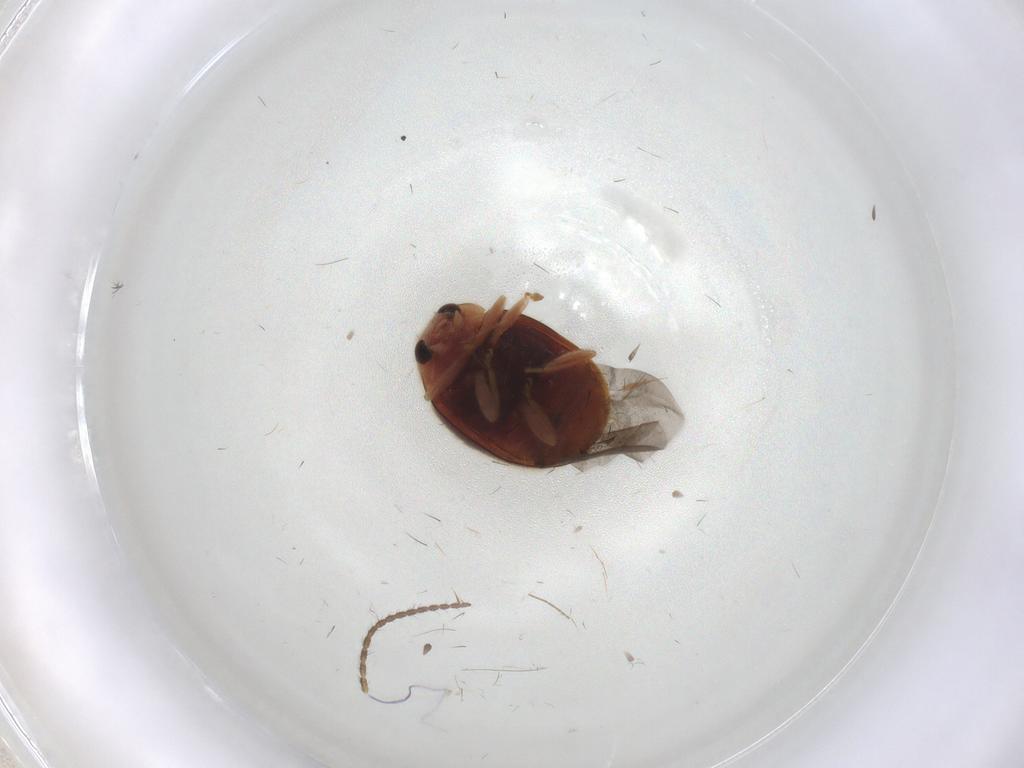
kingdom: Animalia
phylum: Arthropoda
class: Insecta
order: Coleoptera
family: Coccinellidae
